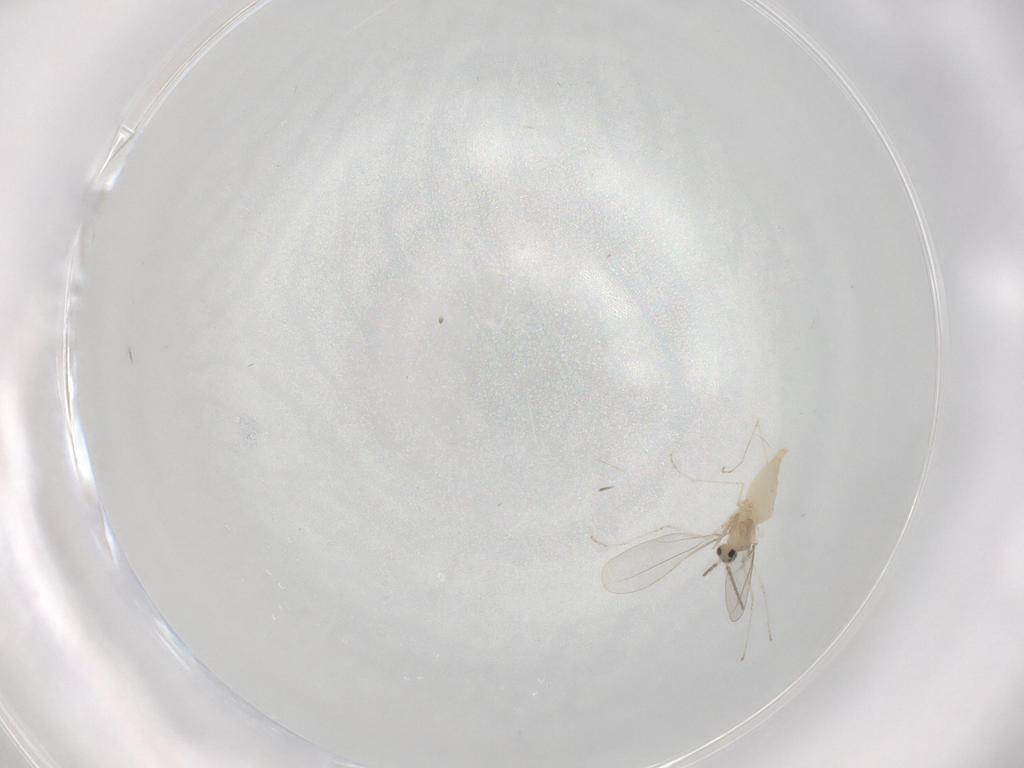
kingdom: Animalia
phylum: Arthropoda
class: Insecta
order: Diptera
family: Cecidomyiidae
